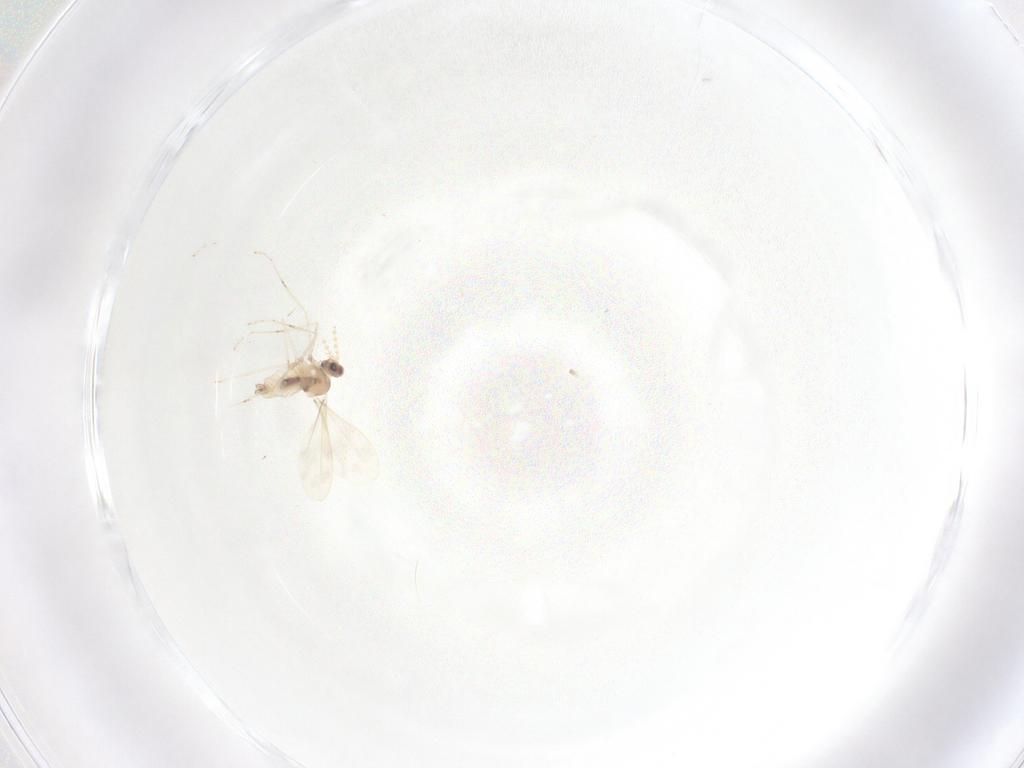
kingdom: Animalia
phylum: Arthropoda
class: Insecta
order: Diptera
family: Cecidomyiidae
